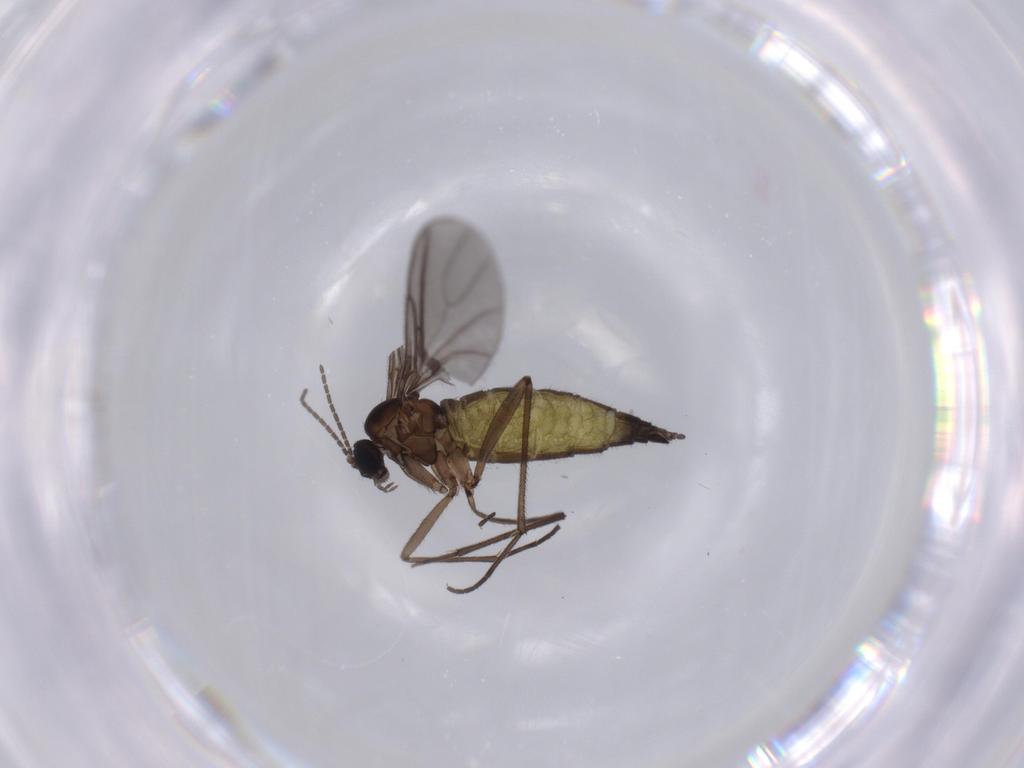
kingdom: Animalia
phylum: Arthropoda
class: Insecta
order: Diptera
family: Sciaridae
